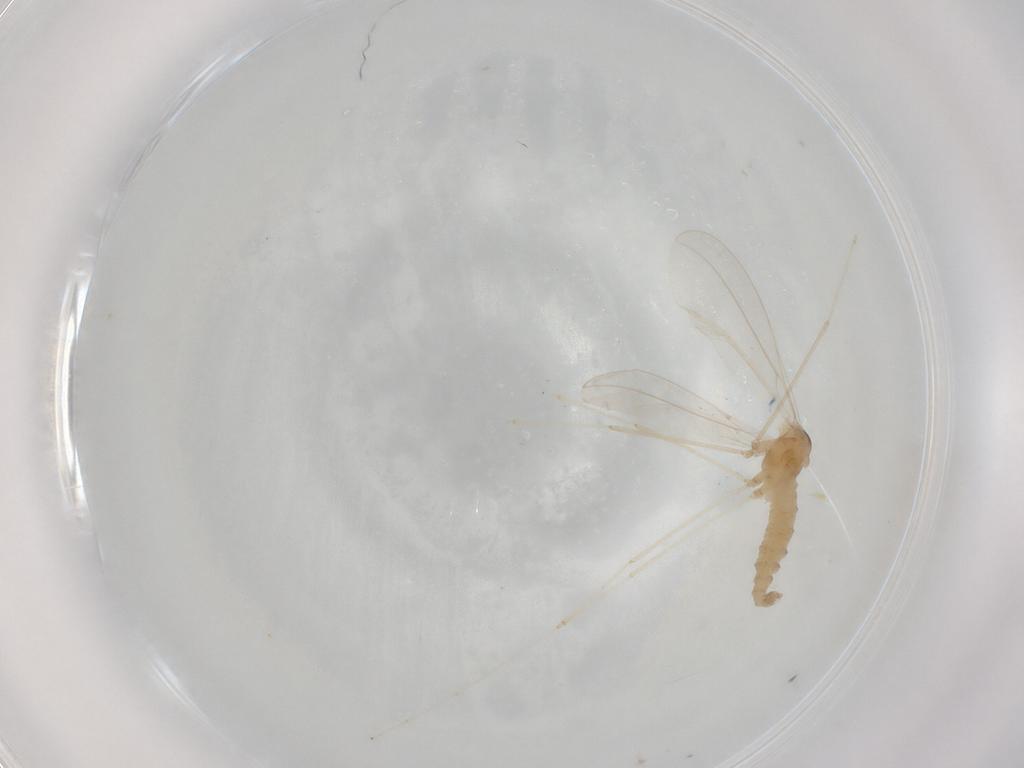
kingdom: Animalia
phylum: Arthropoda
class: Insecta
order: Diptera
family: Cecidomyiidae
